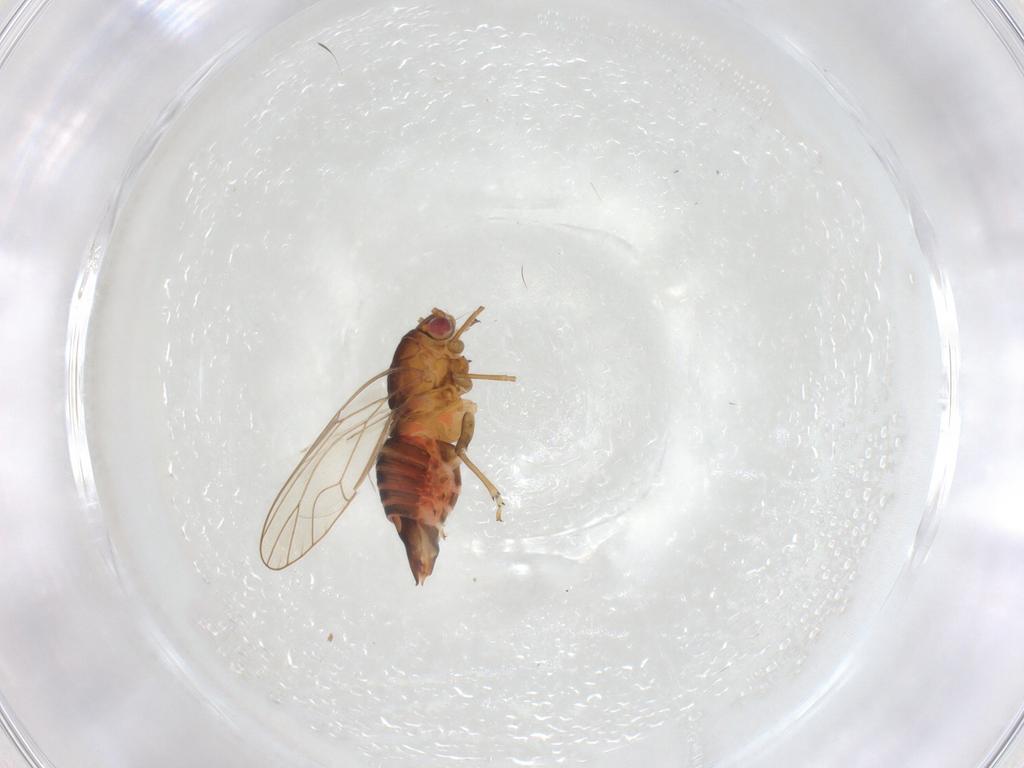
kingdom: Animalia
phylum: Arthropoda
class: Insecta
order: Hemiptera
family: Psyllidae
